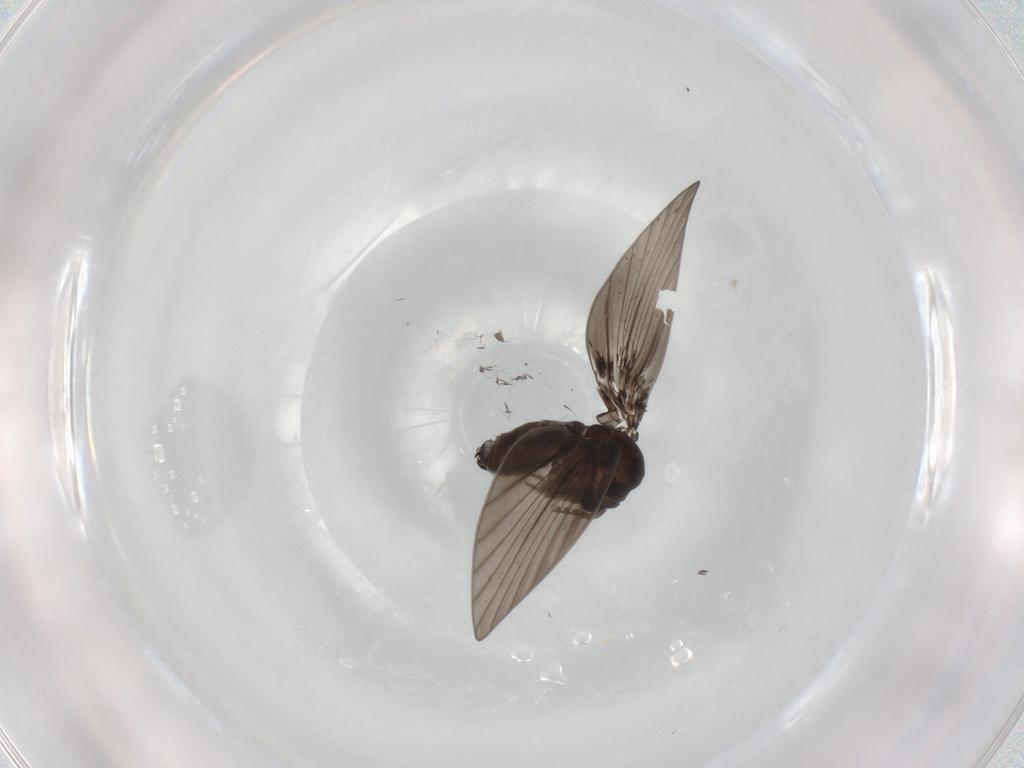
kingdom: Animalia
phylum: Arthropoda
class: Insecta
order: Diptera
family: Psychodidae
